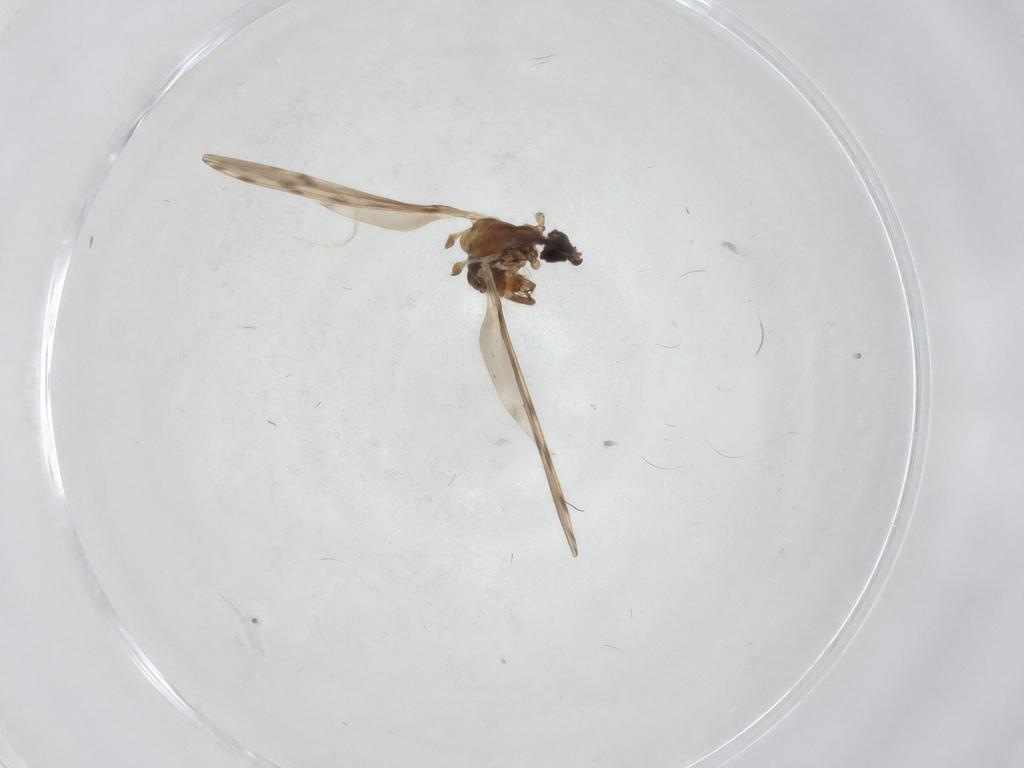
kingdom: Animalia
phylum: Arthropoda
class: Insecta
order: Diptera
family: Limoniidae
